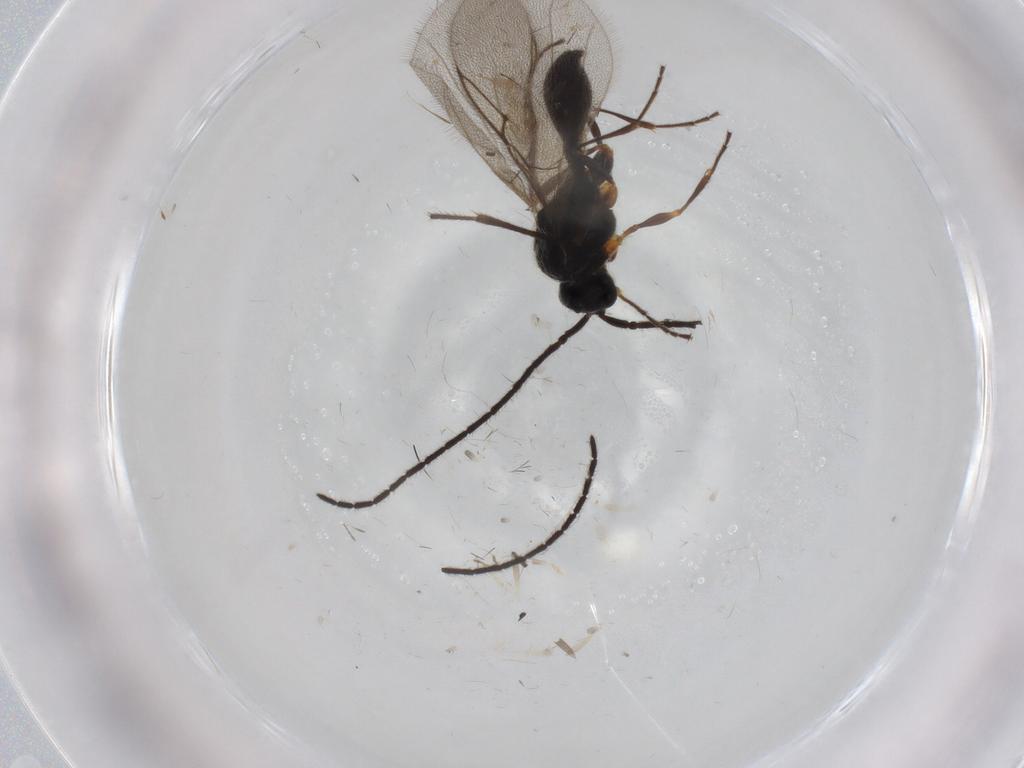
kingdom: Animalia
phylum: Arthropoda
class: Insecta
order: Hymenoptera
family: Diapriidae
